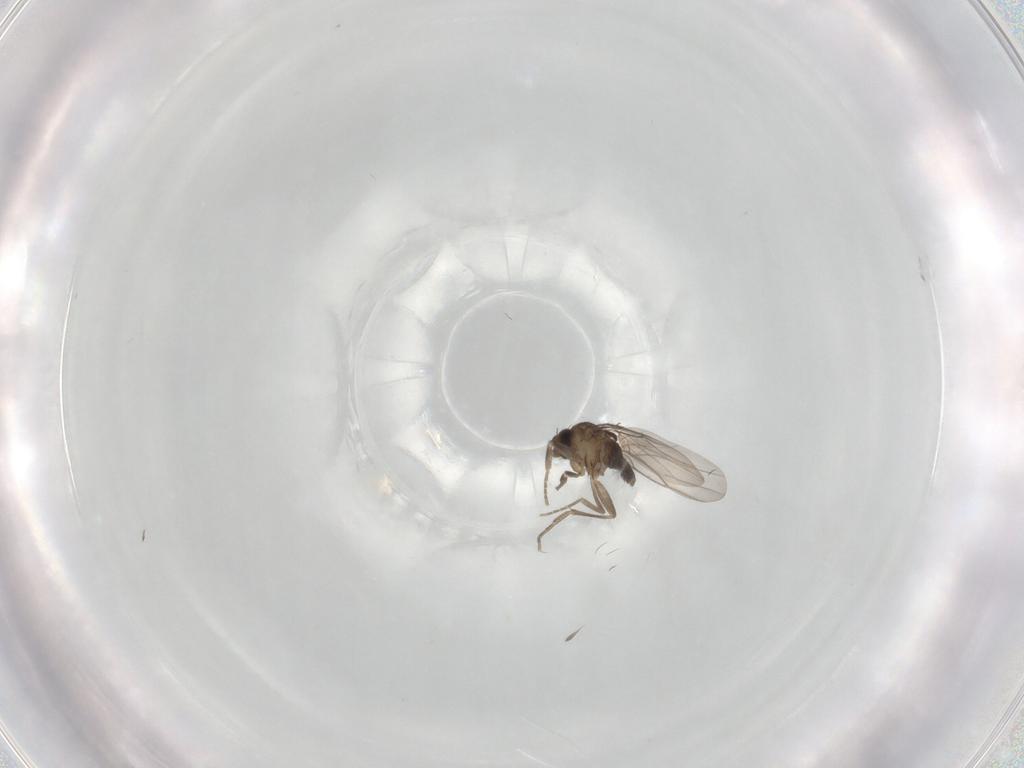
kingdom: Animalia
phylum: Arthropoda
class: Insecta
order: Diptera
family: Phoridae
